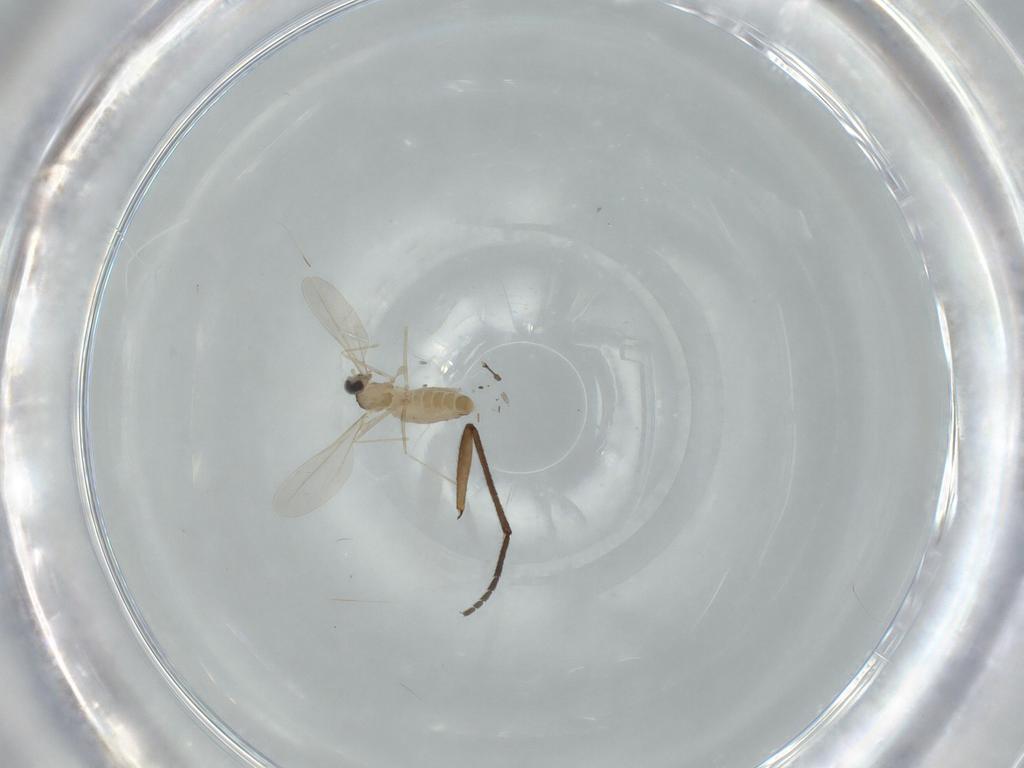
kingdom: Animalia
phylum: Arthropoda
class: Insecta
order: Diptera
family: Cecidomyiidae
